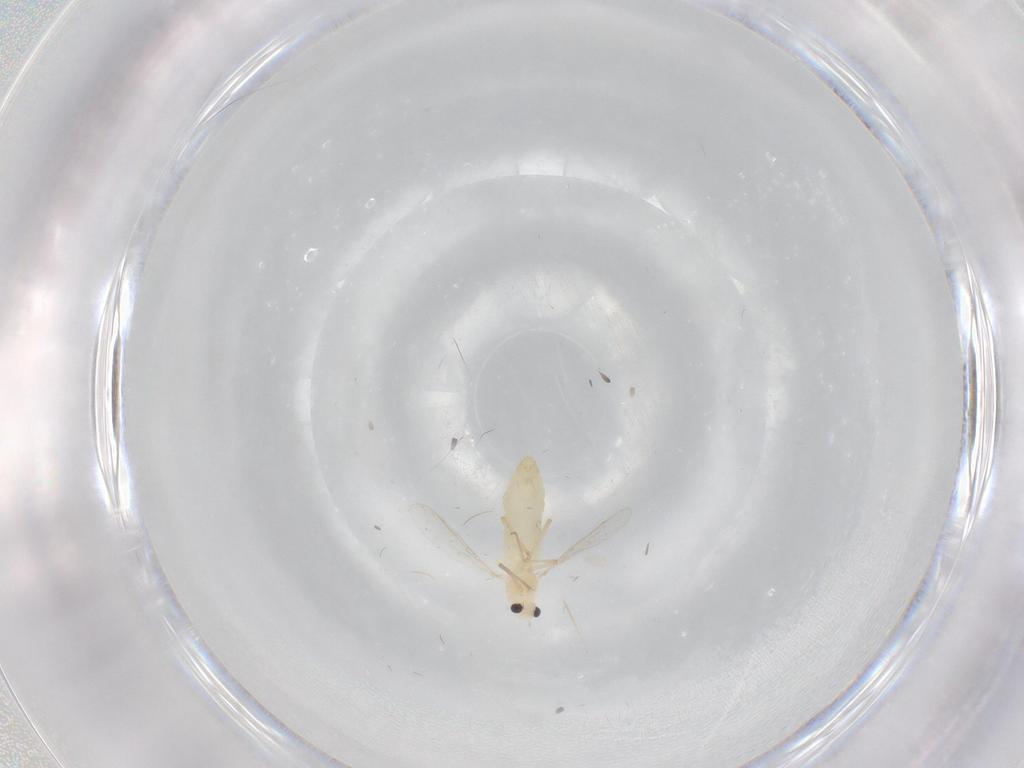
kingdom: Animalia
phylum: Arthropoda
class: Insecta
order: Diptera
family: Chironomidae
